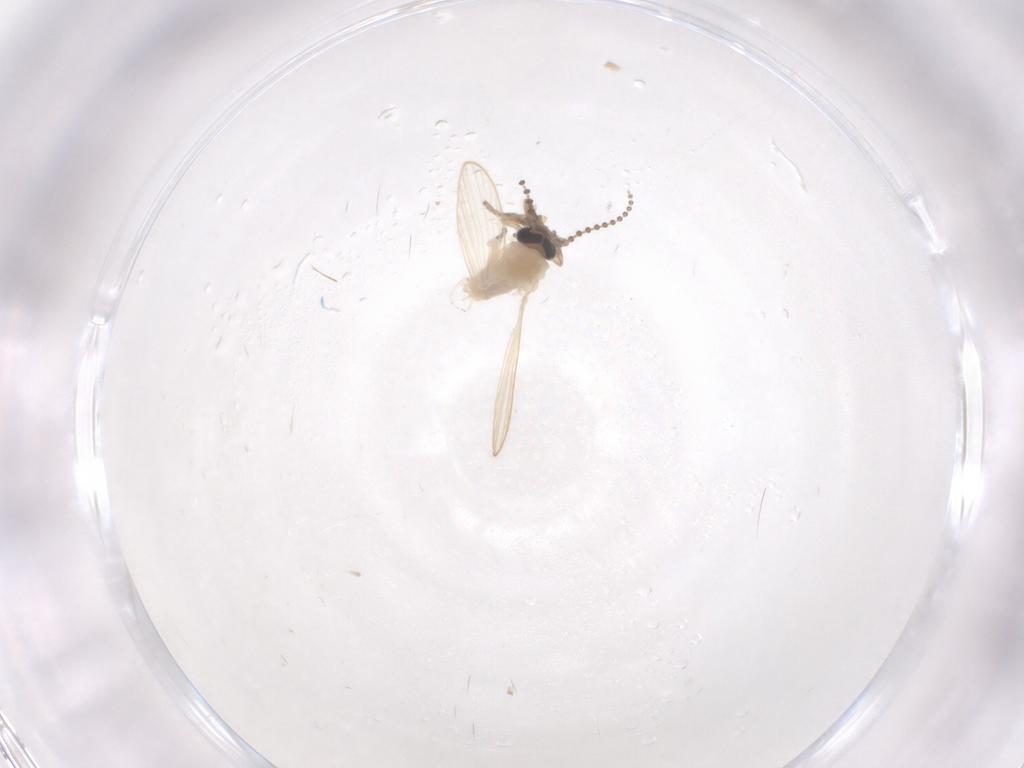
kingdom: Animalia
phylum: Arthropoda
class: Insecta
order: Diptera
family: Psychodidae
